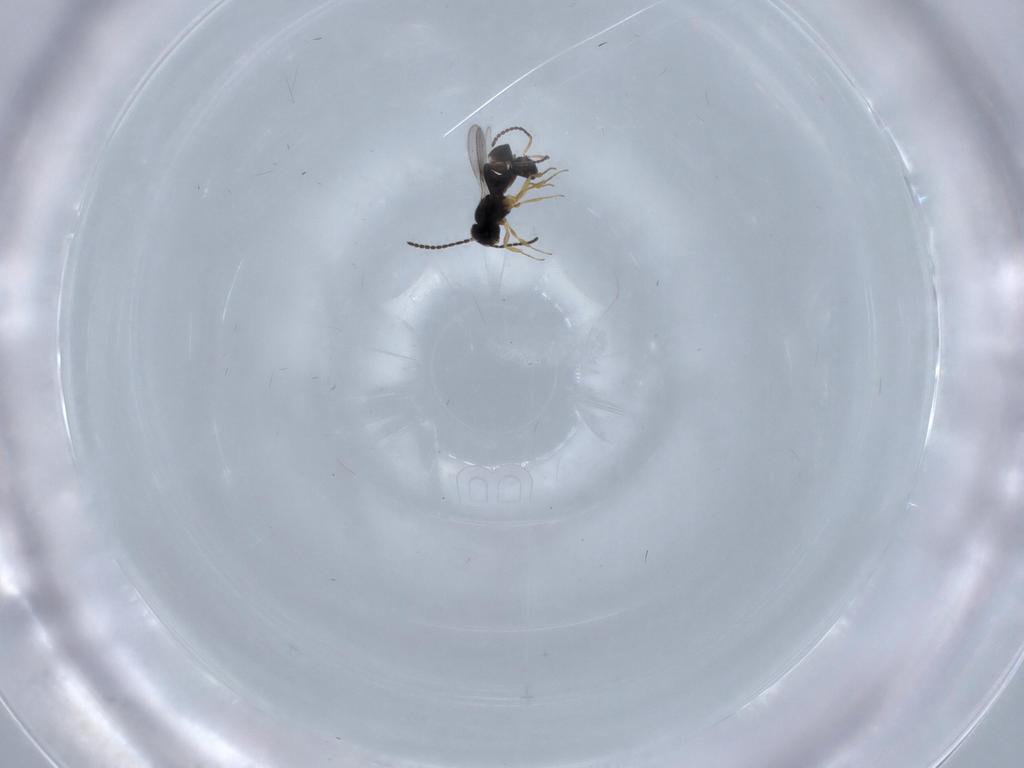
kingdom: Animalia
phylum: Arthropoda
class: Insecta
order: Hymenoptera
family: Scelionidae
